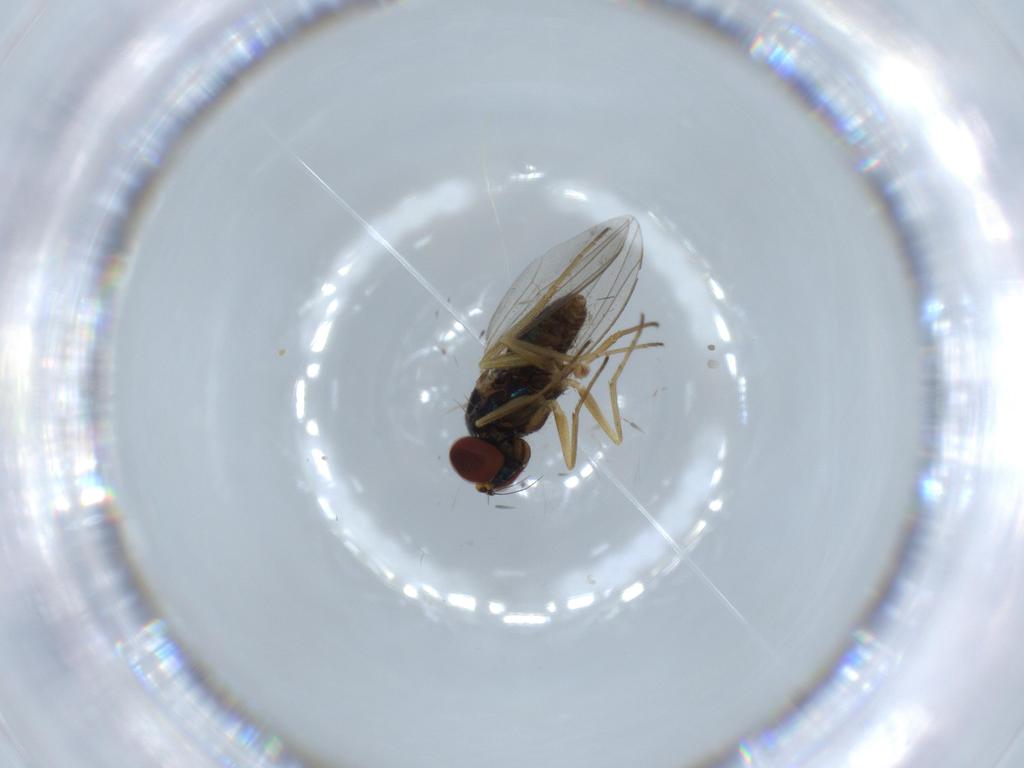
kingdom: Animalia
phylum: Arthropoda
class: Insecta
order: Diptera
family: Dolichopodidae
